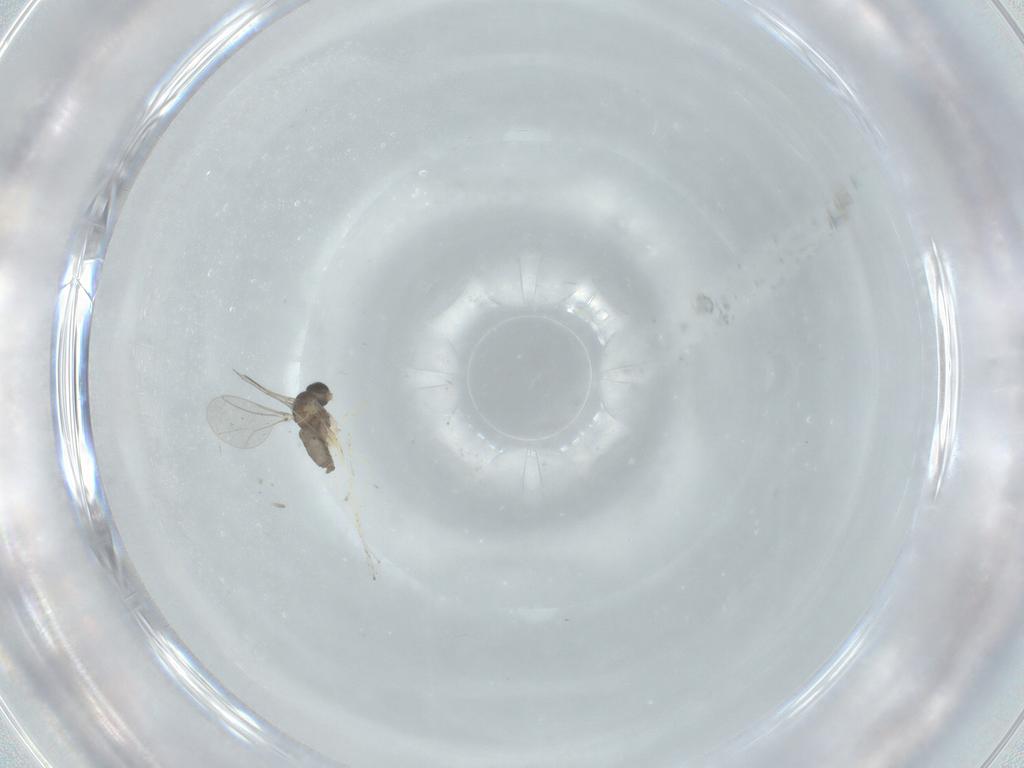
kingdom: Animalia
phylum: Arthropoda
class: Insecta
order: Diptera
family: Cecidomyiidae
